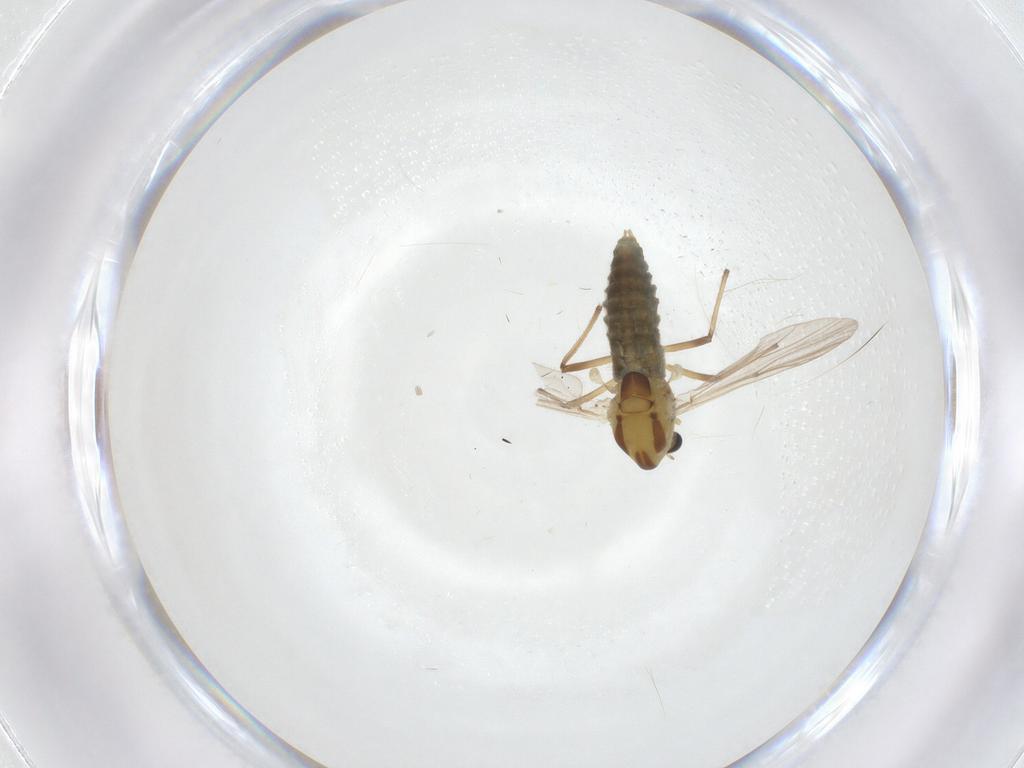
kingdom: Animalia
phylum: Arthropoda
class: Insecta
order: Diptera
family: Chironomidae
